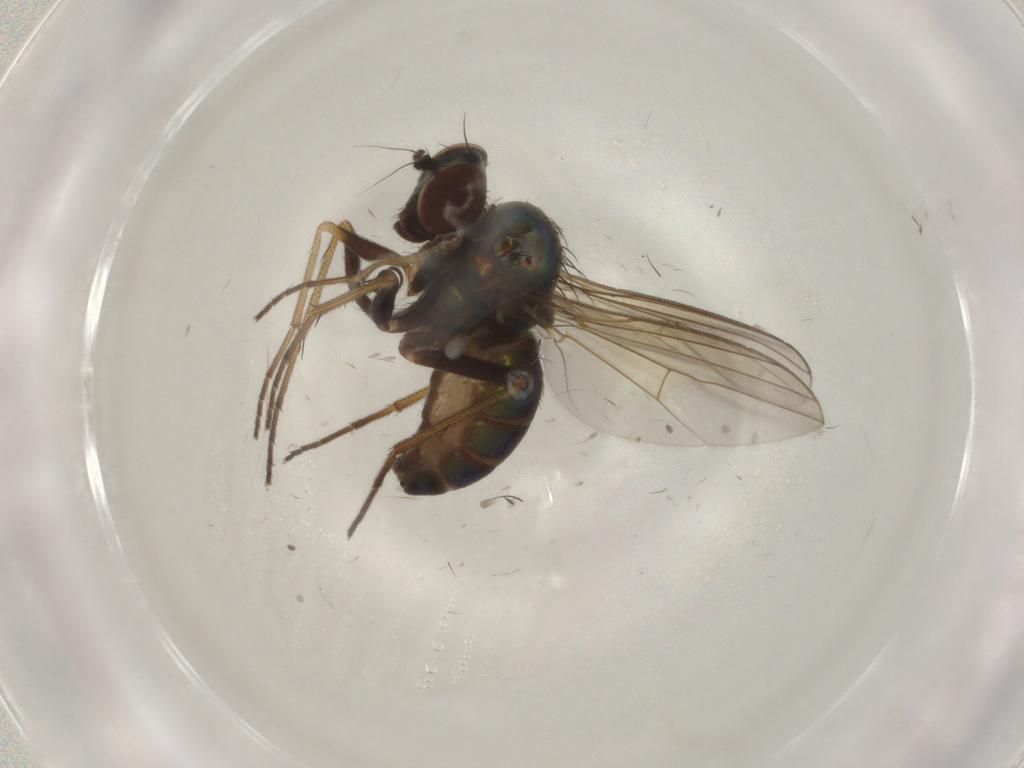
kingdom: Animalia
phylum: Arthropoda
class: Insecta
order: Diptera
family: Dolichopodidae
